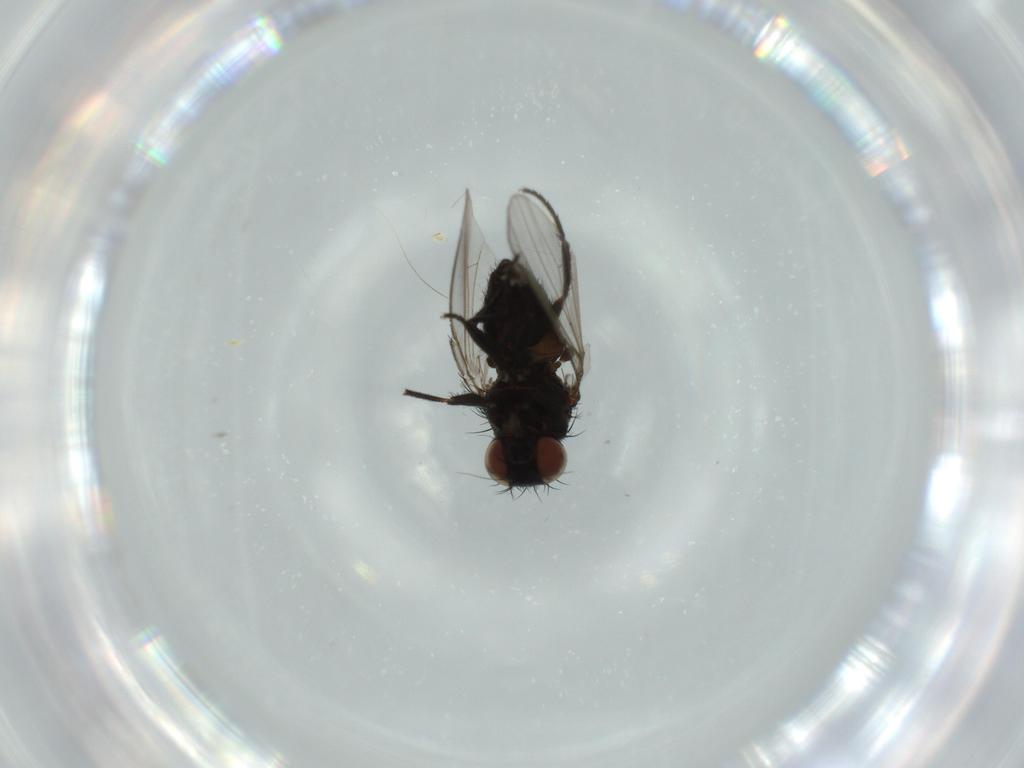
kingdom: Animalia
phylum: Arthropoda
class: Insecta
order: Diptera
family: Milichiidae
